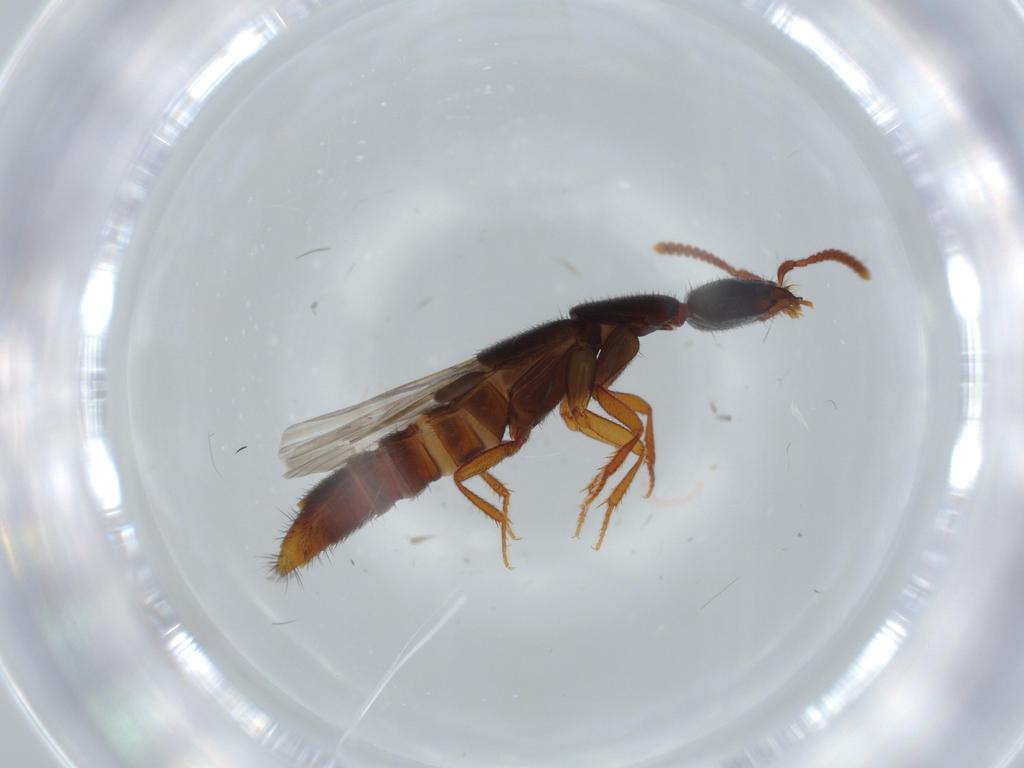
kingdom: Animalia
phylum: Arthropoda
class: Insecta
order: Coleoptera
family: Staphylinidae
